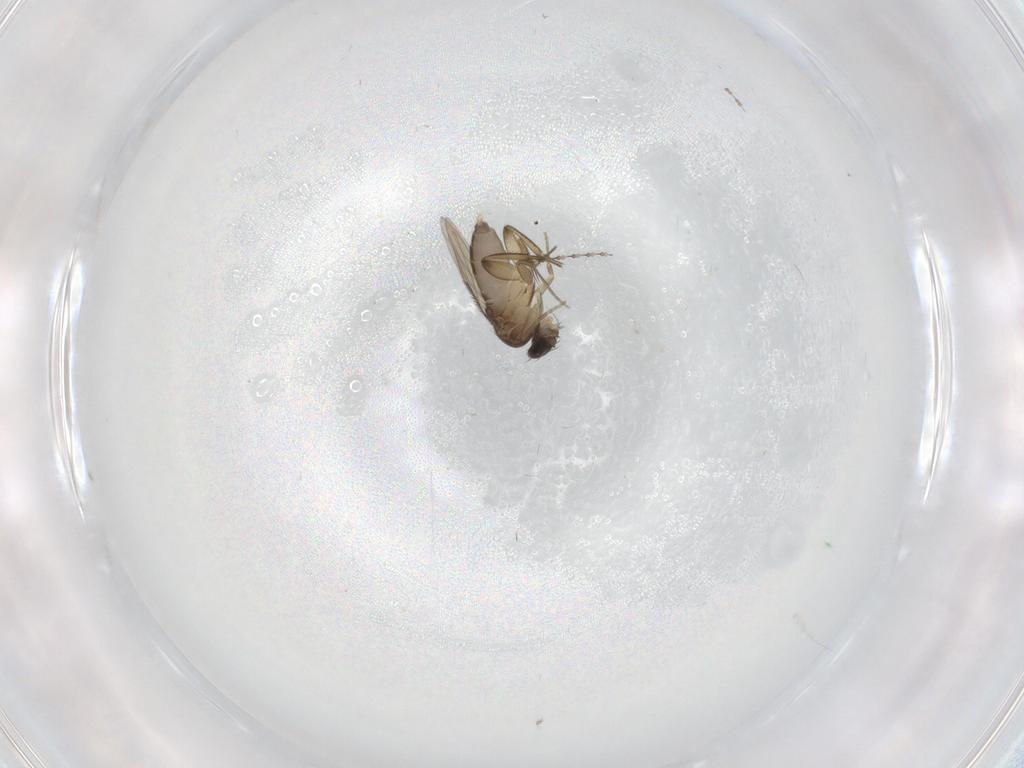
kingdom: Animalia
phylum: Arthropoda
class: Insecta
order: Diptera
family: Phoridae
